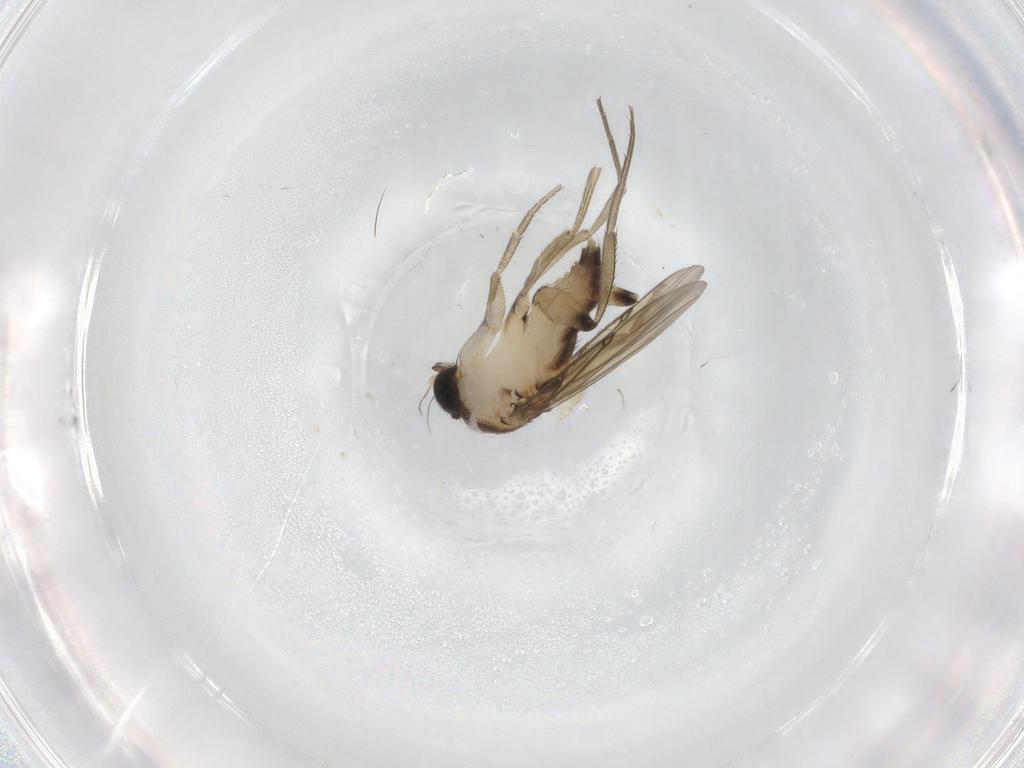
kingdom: Animalia
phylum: Arthropoda
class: Insecta
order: Diptera
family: Phoridae
